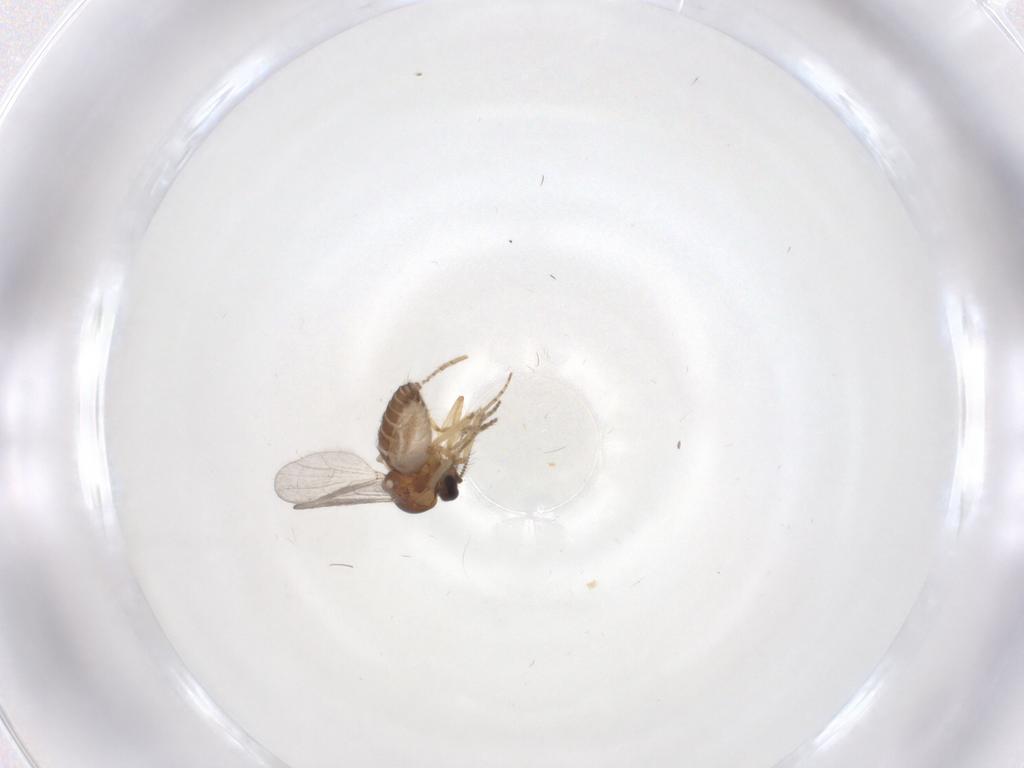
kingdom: Animalia
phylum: Arthropoda
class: Insecta
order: Diptera
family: Ceratopogonidae
